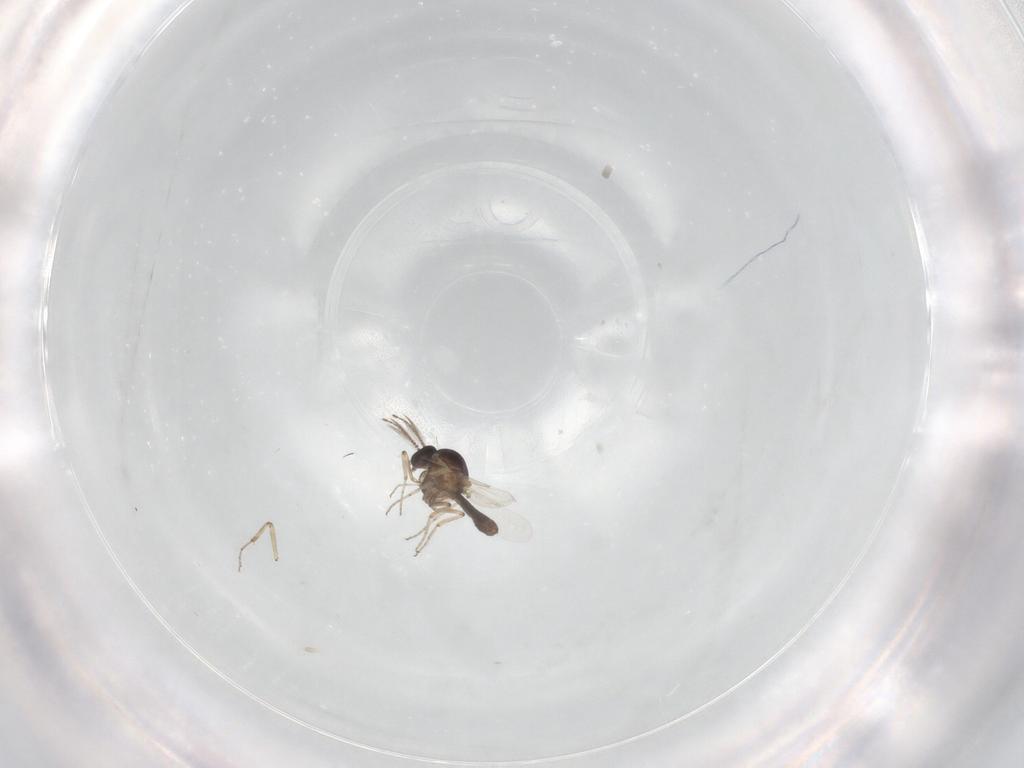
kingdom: Animalia
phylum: Arthropoda
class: Insecta
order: Diptera
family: Ceratopogonidae
